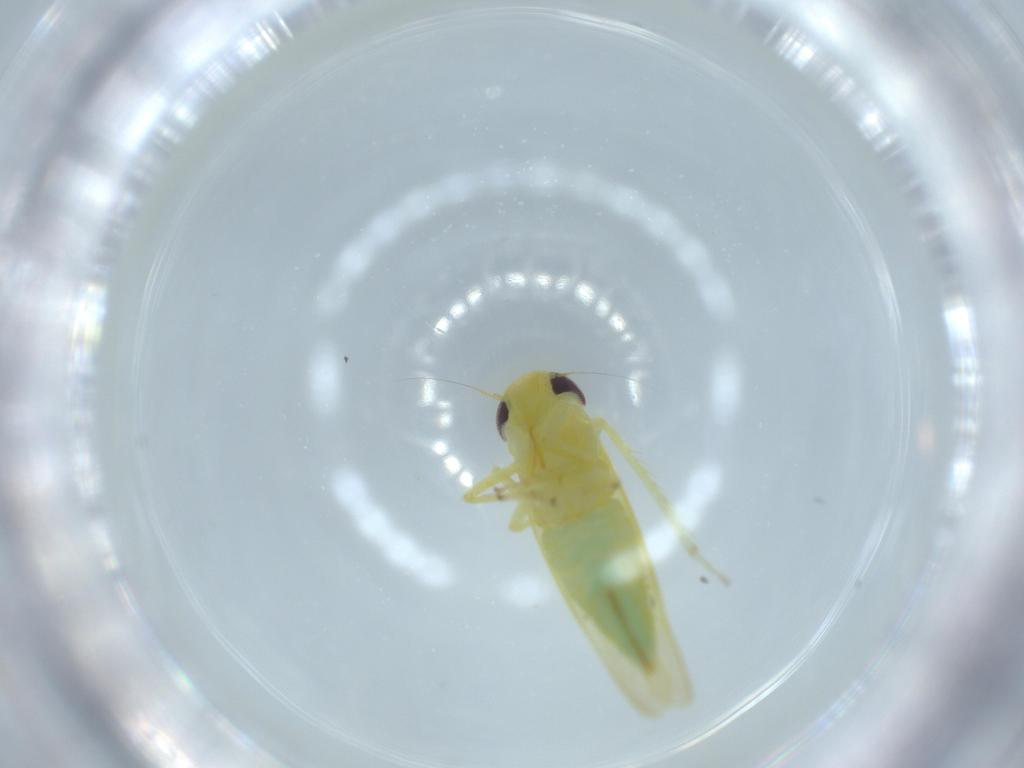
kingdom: Animalia
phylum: Arthropoda
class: Insecta
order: Hemiptera
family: Cicadellidae
